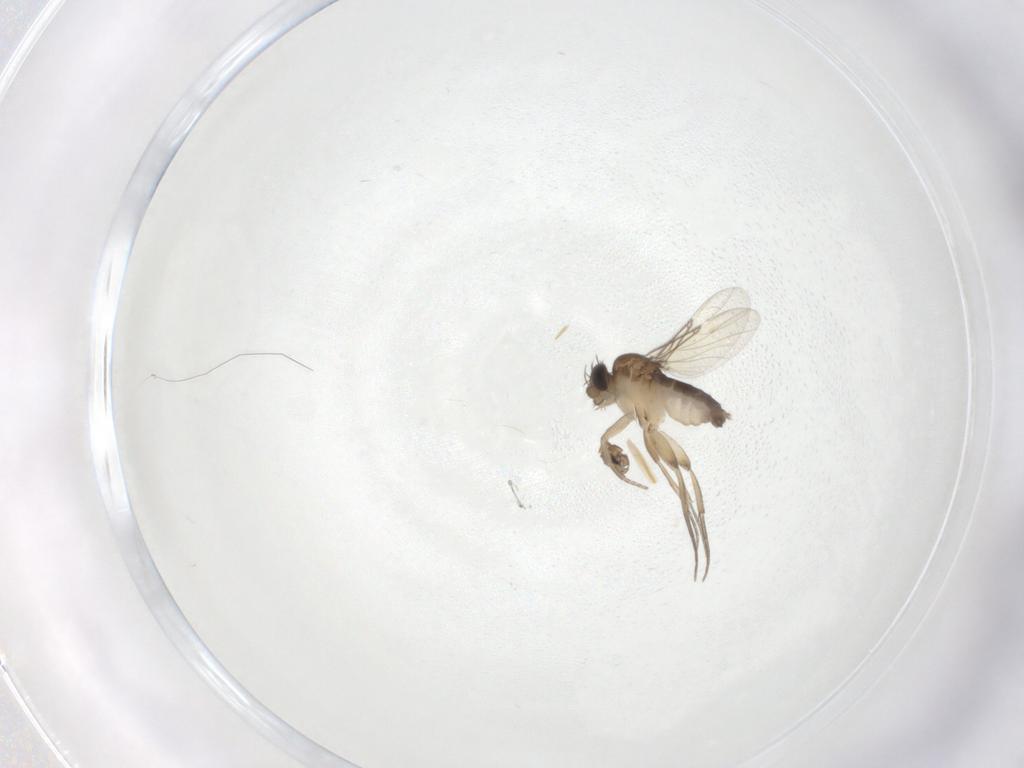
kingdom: Animalia
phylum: Arthropoda
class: Insecta
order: Diptera
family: Phoridae
